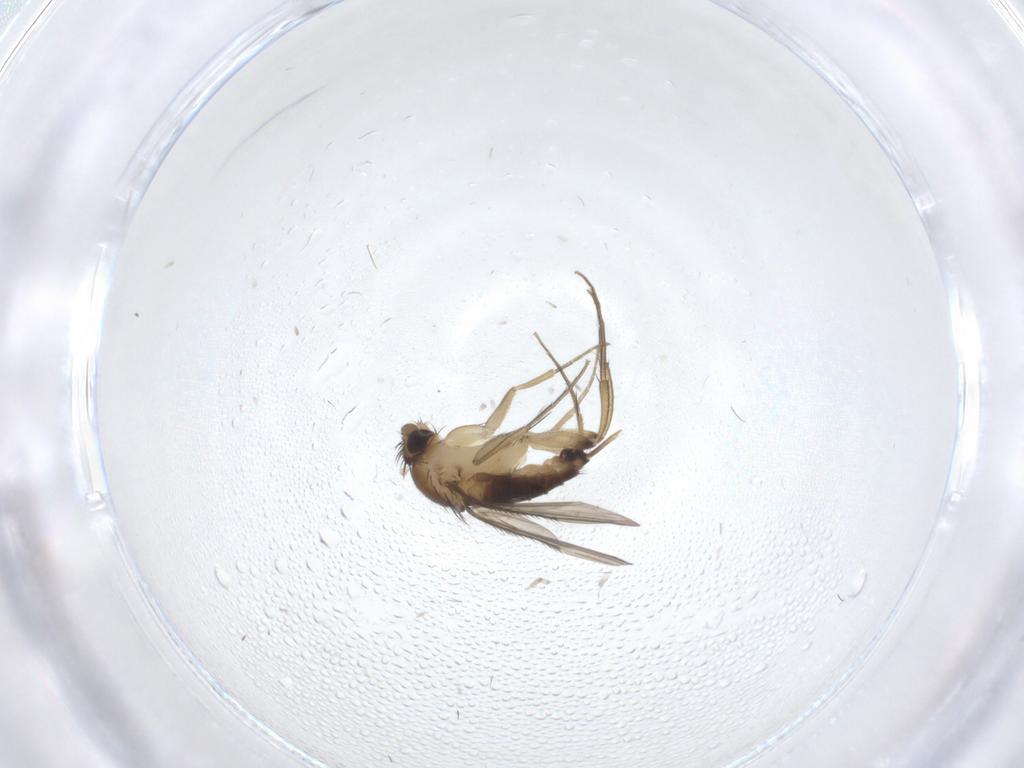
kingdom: Animalia
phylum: Arthropoda
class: Insecta
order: Diptera
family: Phoridae
